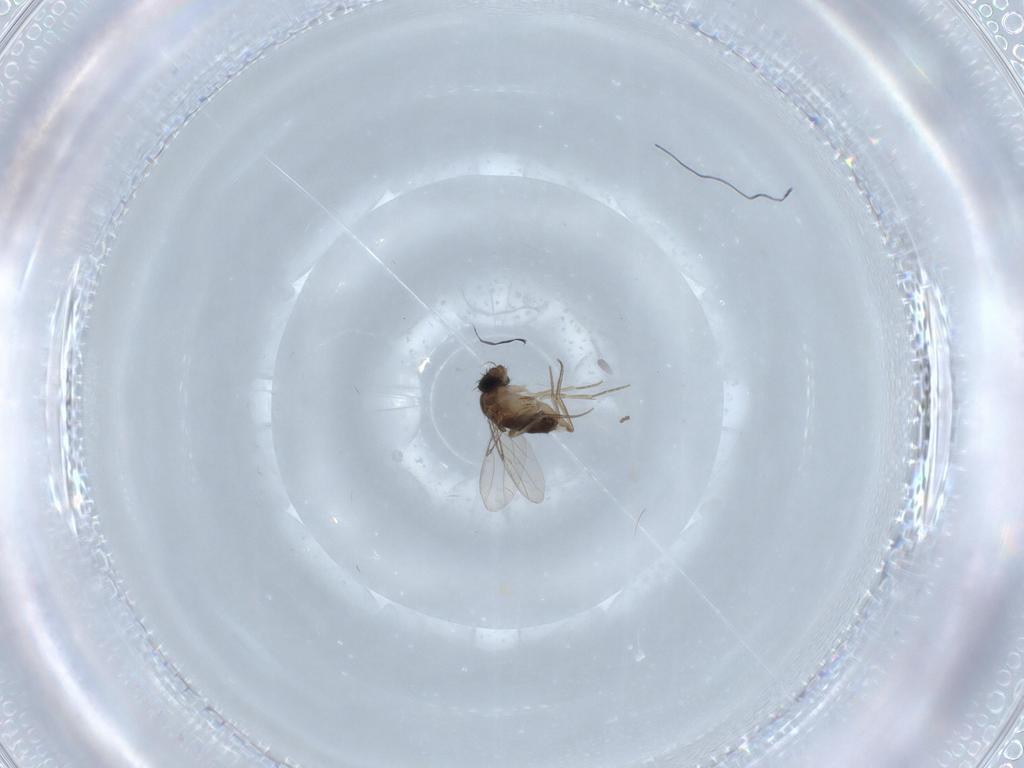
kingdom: Animalia
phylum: Arthropoda
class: Insecta
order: Diptera
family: Phoridae
